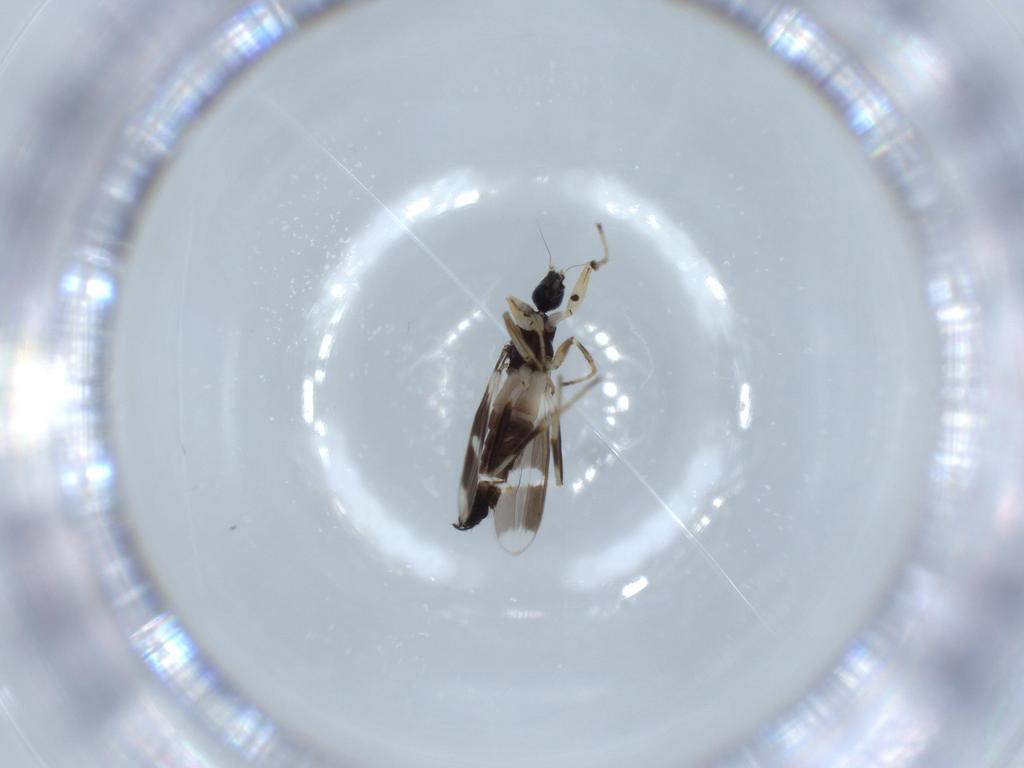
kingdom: Animalia
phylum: Arthropoda
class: Insecta
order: Diptera
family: Hybotidae
